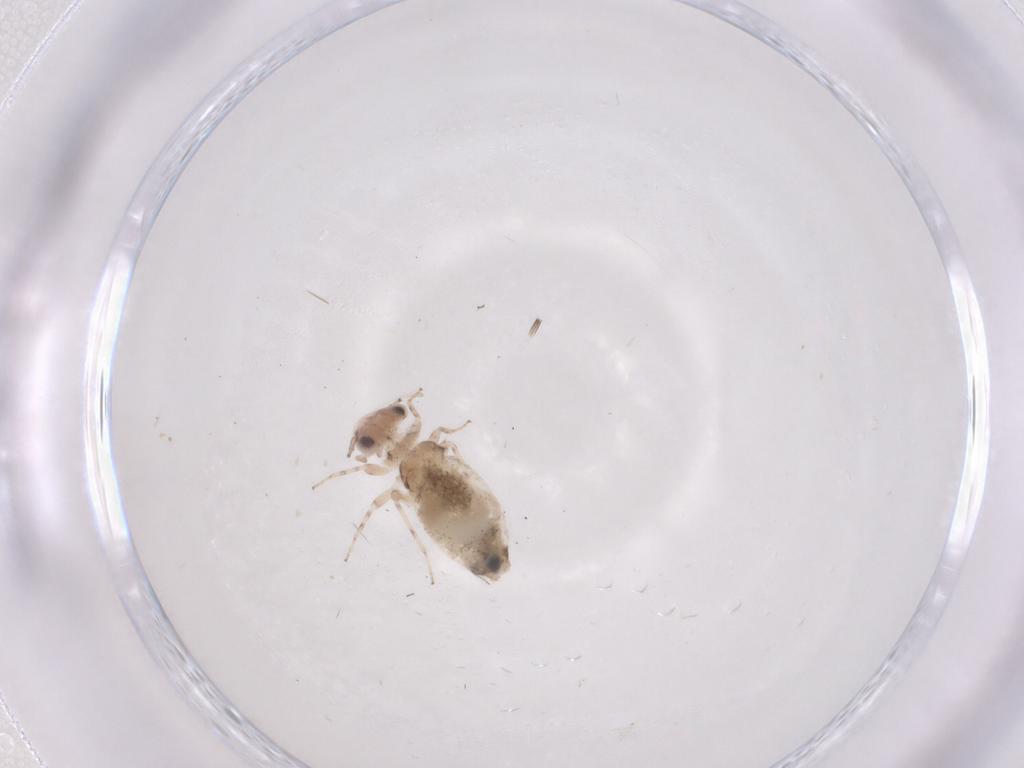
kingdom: Animalia
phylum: Arthropoda
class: Insecta
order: Psocodea
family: Trogiidae
